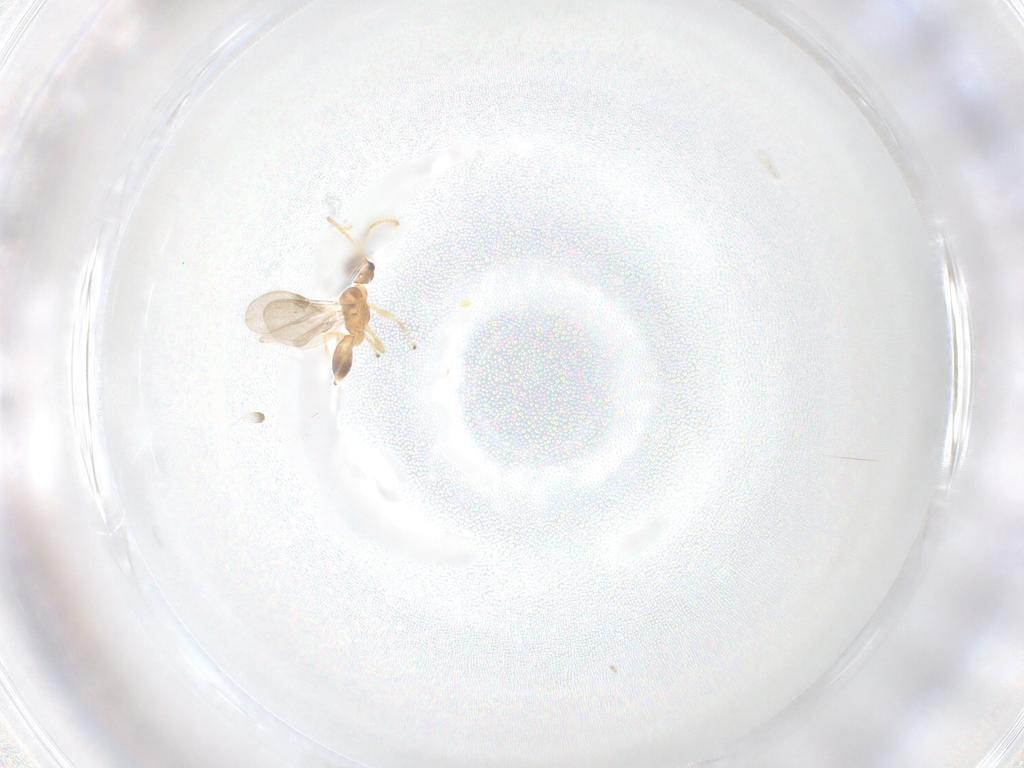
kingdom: Animalia
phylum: Arthropoda
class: Insecta
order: Hymenoptera
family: Braconidae
